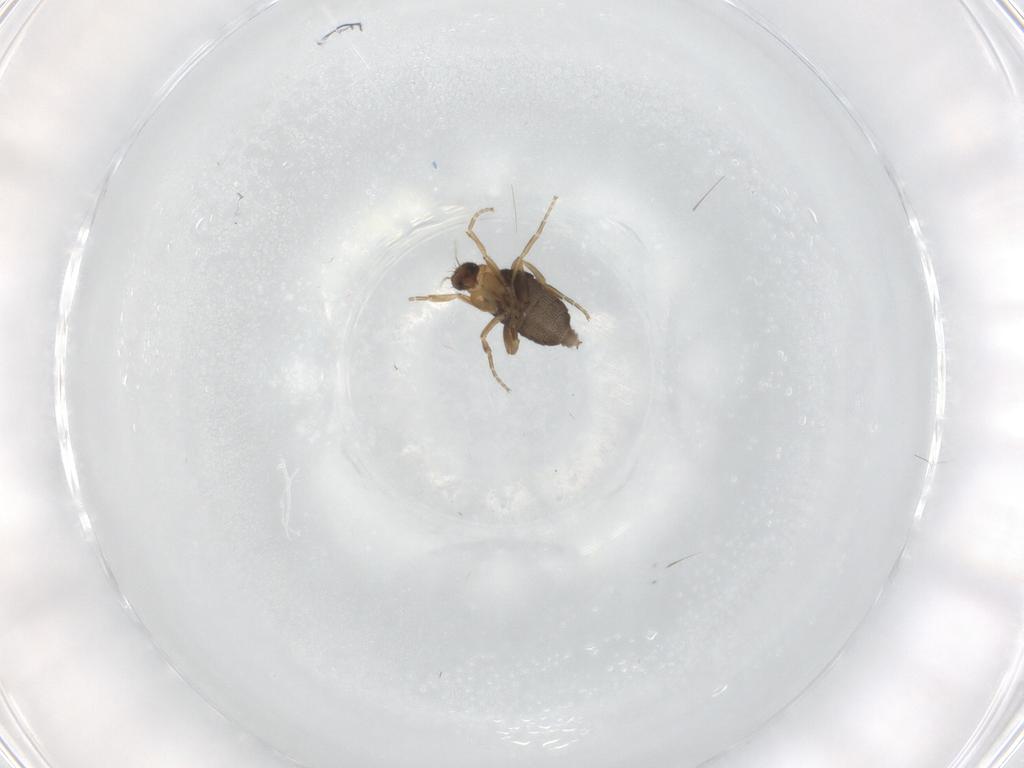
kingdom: Animalia
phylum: Arthropoda
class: Insecta
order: Diptera
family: Phoridae
